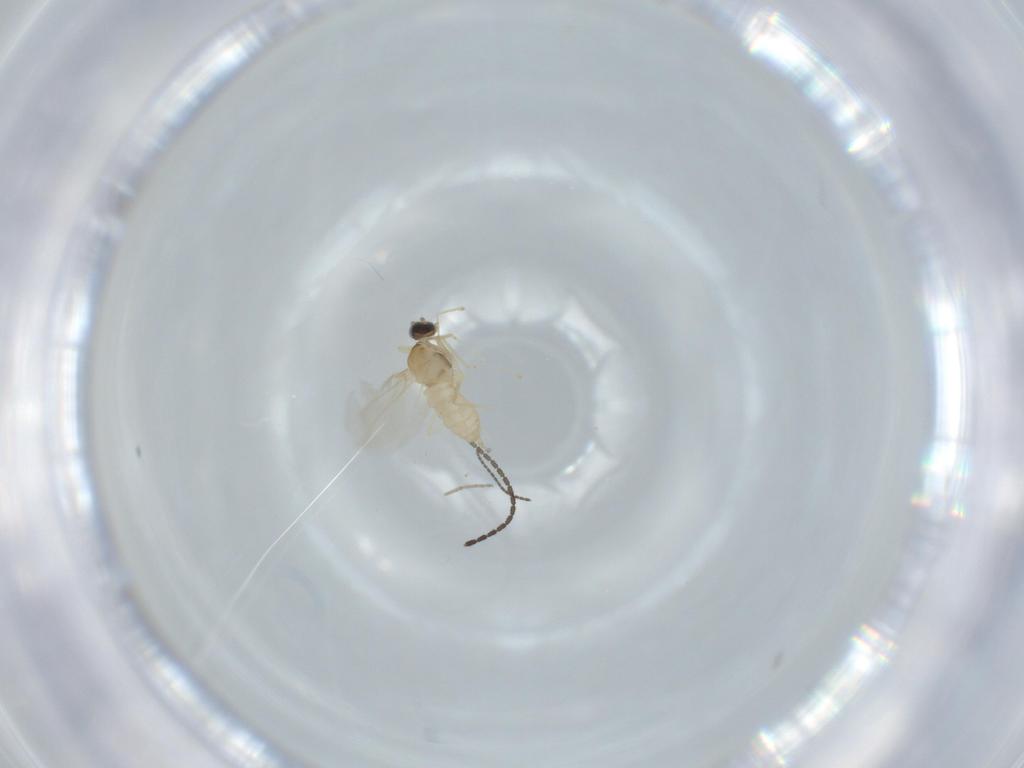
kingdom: Animalia
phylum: Arthropoda
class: Insecta
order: Diptera
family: Cecidomyiidae
